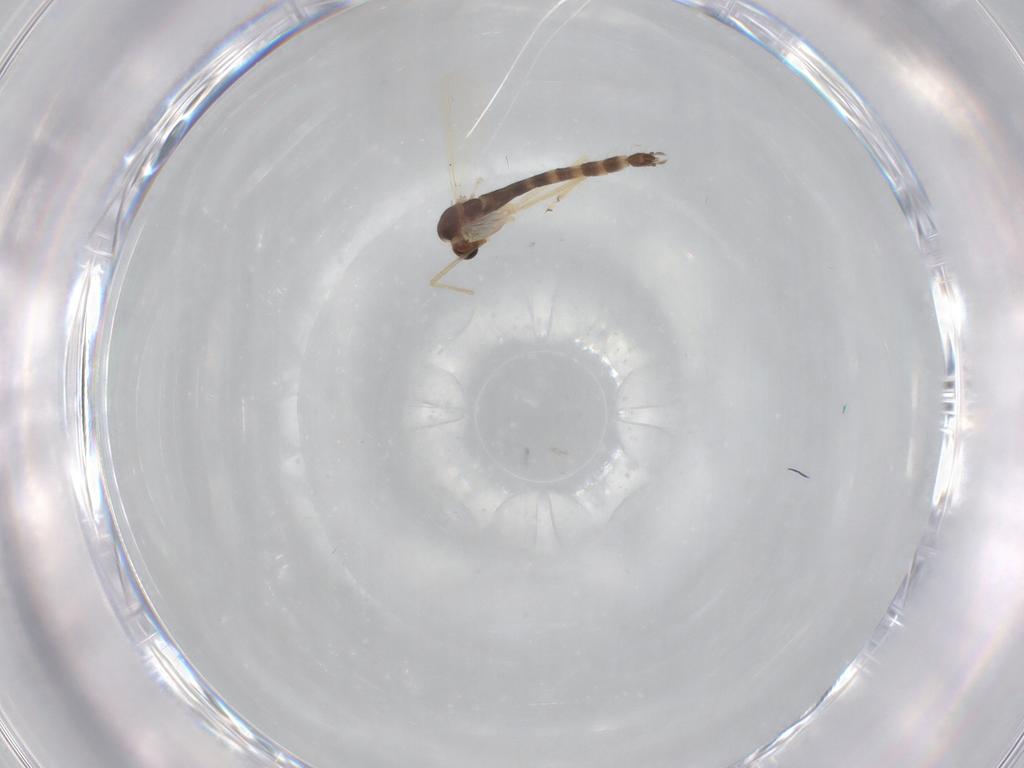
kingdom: Animalia
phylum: Arthropoda
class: Insecta
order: Diptera
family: Chironomidae
